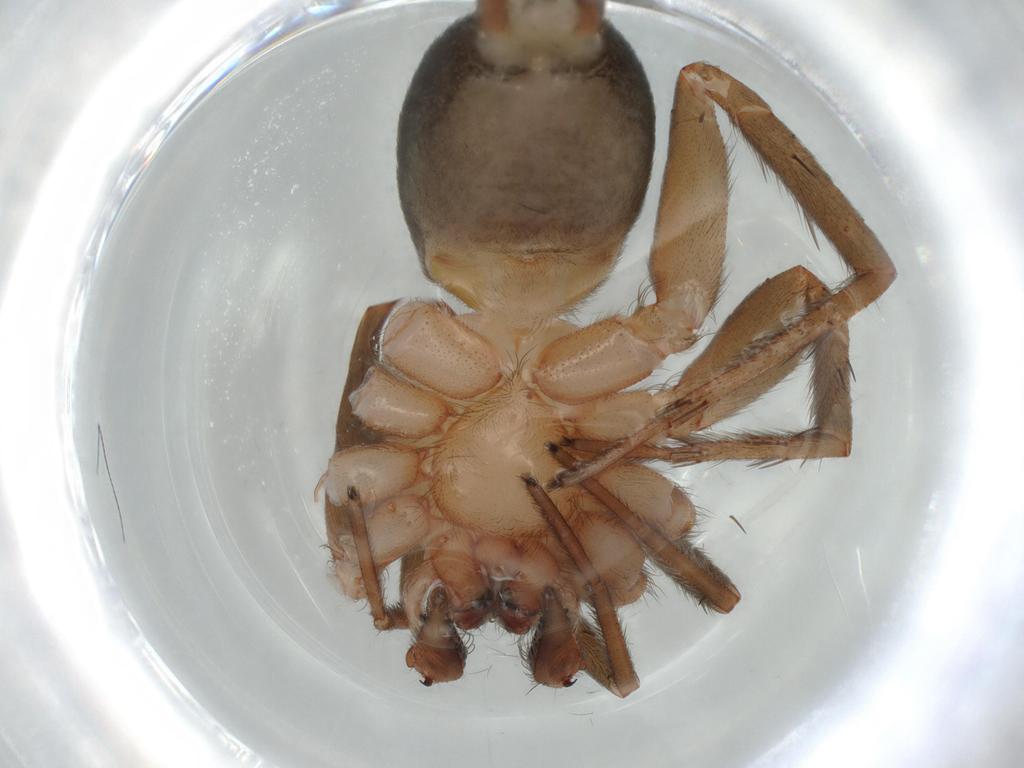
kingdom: Animalia
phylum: Arthropoda
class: Arachnida
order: Araneae
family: Gnaphosidae
